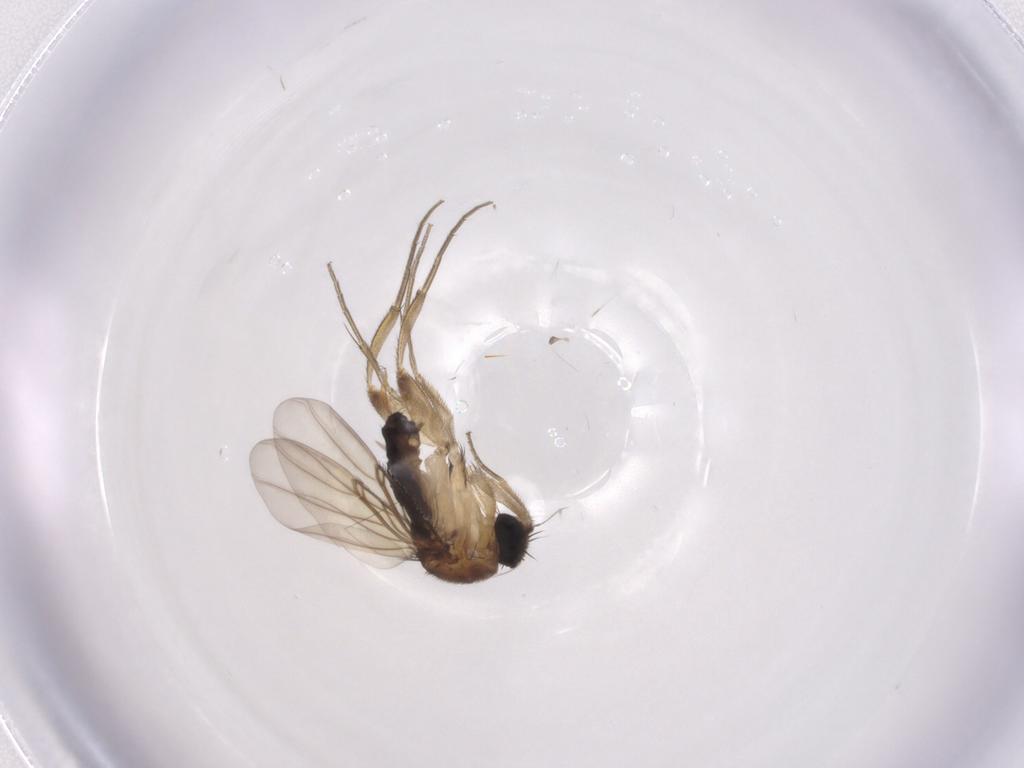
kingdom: Animalia
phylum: Arthropoda
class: Insecta
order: Diptera
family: Phoridae
